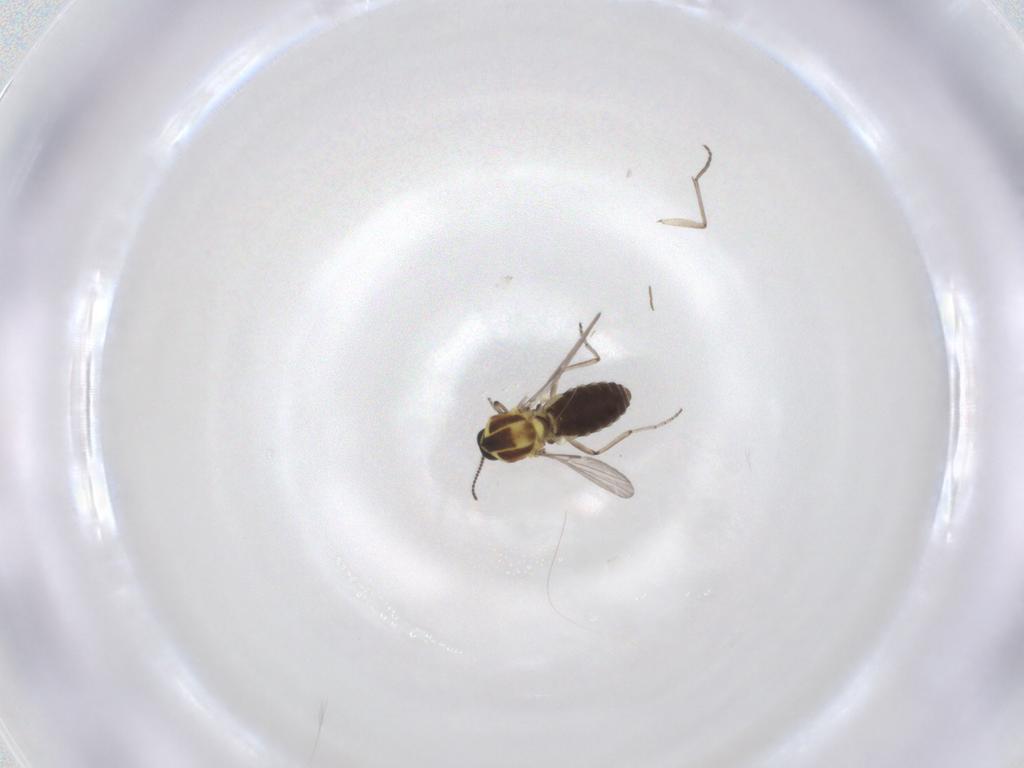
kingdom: Animalia
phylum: Arthropoda
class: Insecta
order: Diptera
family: Ceratopogonidae
